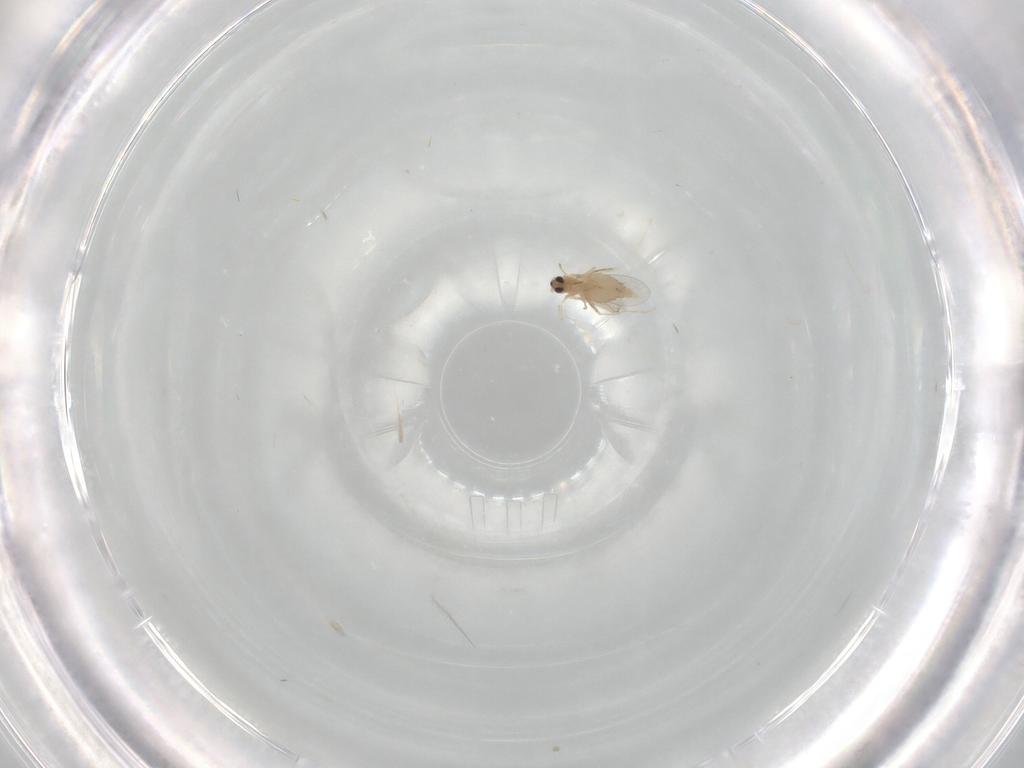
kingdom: Animalia
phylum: Arthropoda
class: Insecta
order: Diptera
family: Cecidomyiidae
